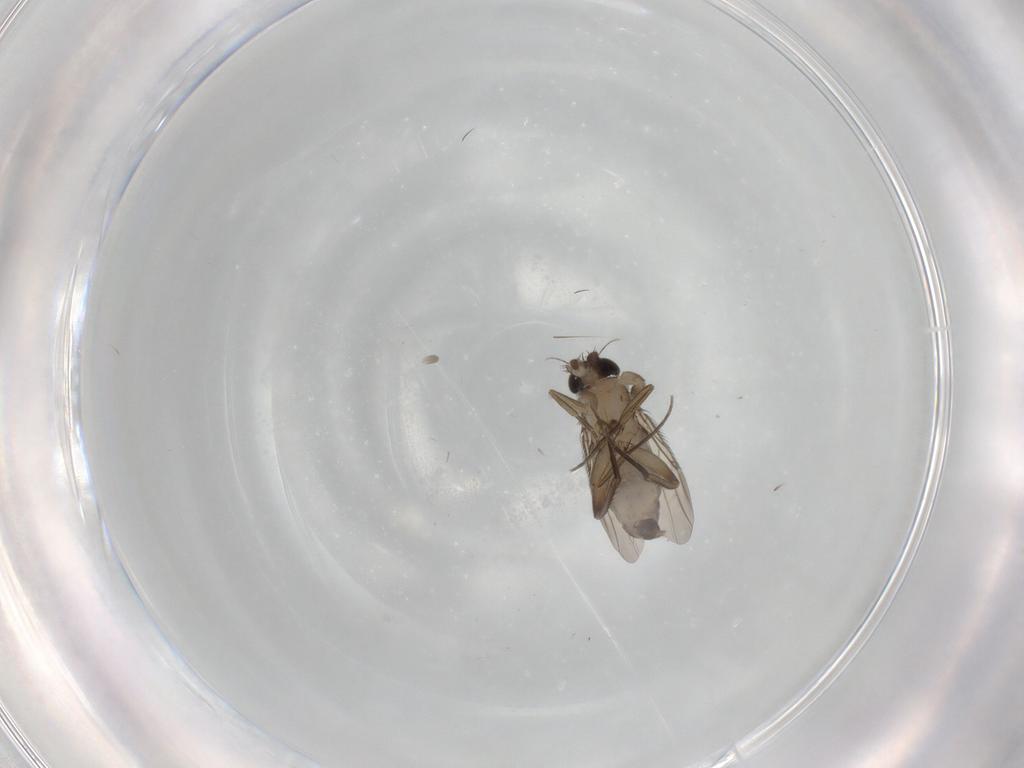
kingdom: Animalia
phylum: Arthropoda
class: Insecta
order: Diptera
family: Phoridae
